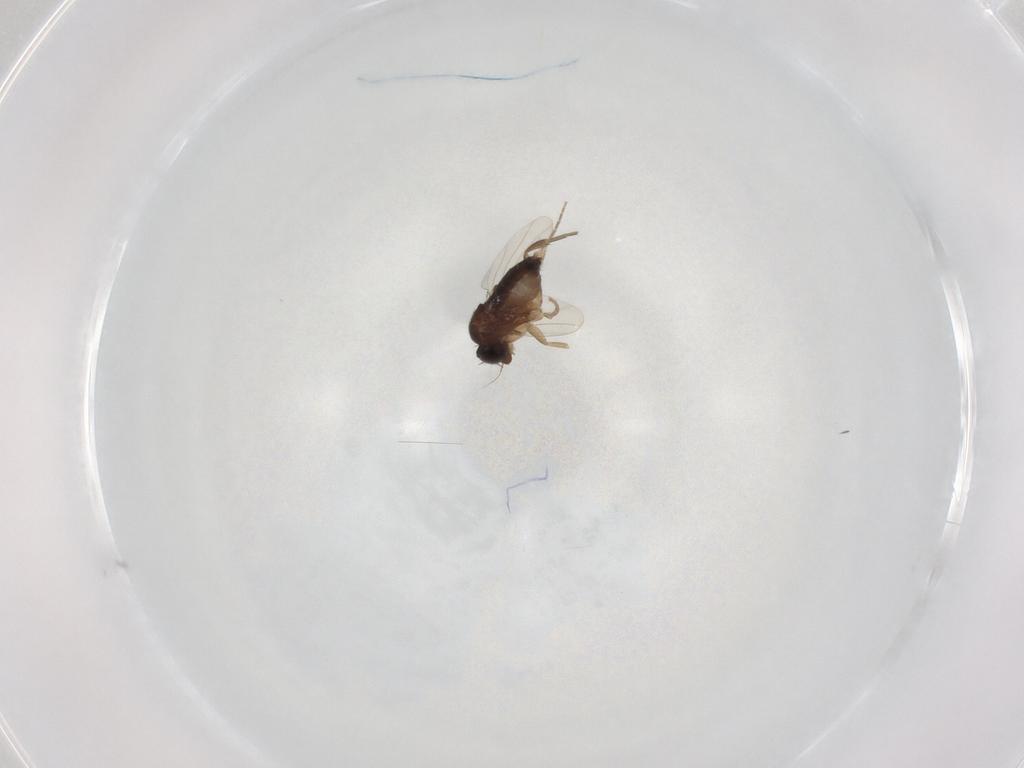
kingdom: Animalia
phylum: Arthropoda
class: Insecta
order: Diptera
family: Phoridae
